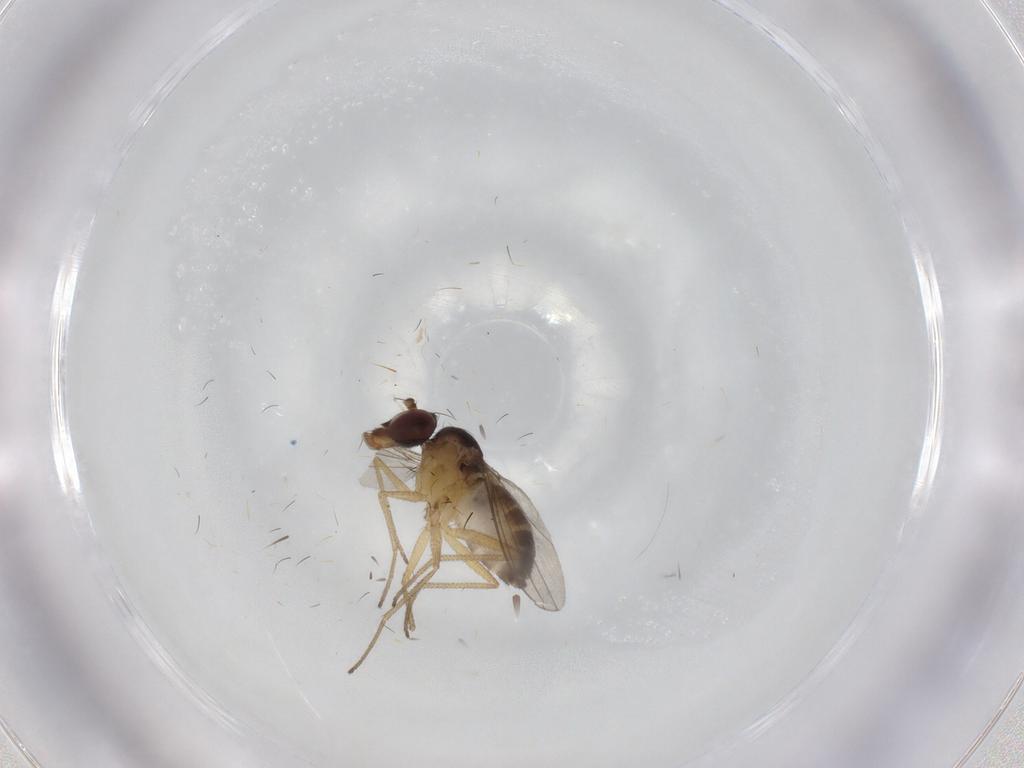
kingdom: Animalia
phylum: Arthropoda
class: Insecta
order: Diptera
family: Dolichopodidae
